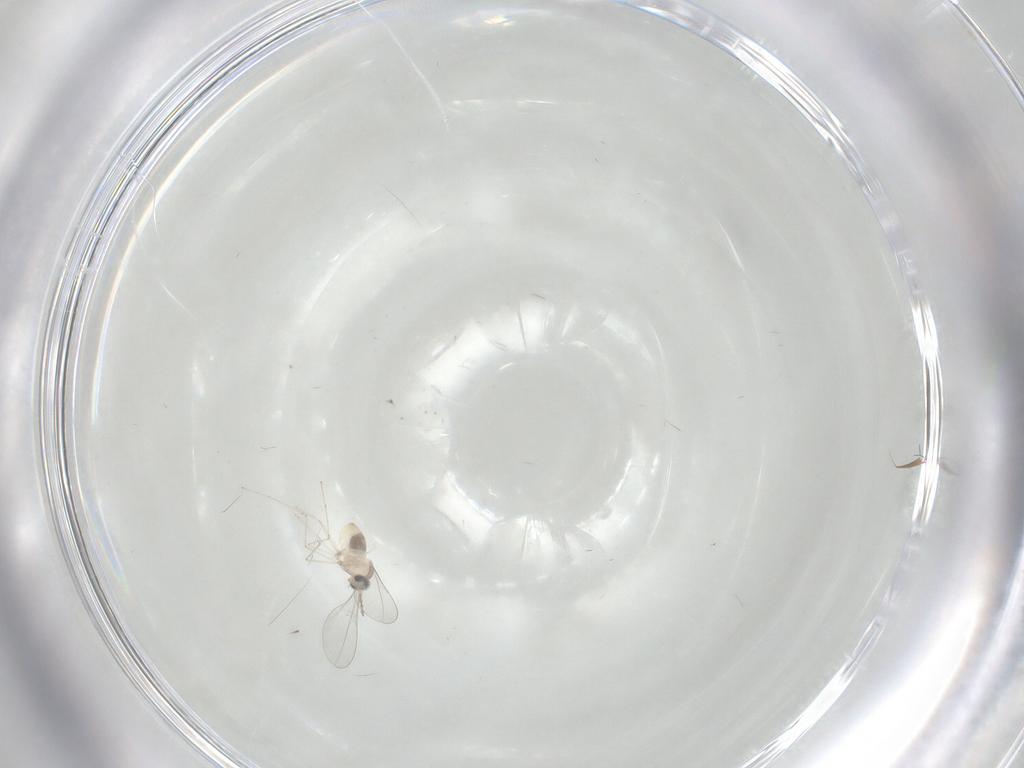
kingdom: Animalia
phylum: Arthropoda
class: Insecta
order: Diptera
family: Cecidomyiidae
